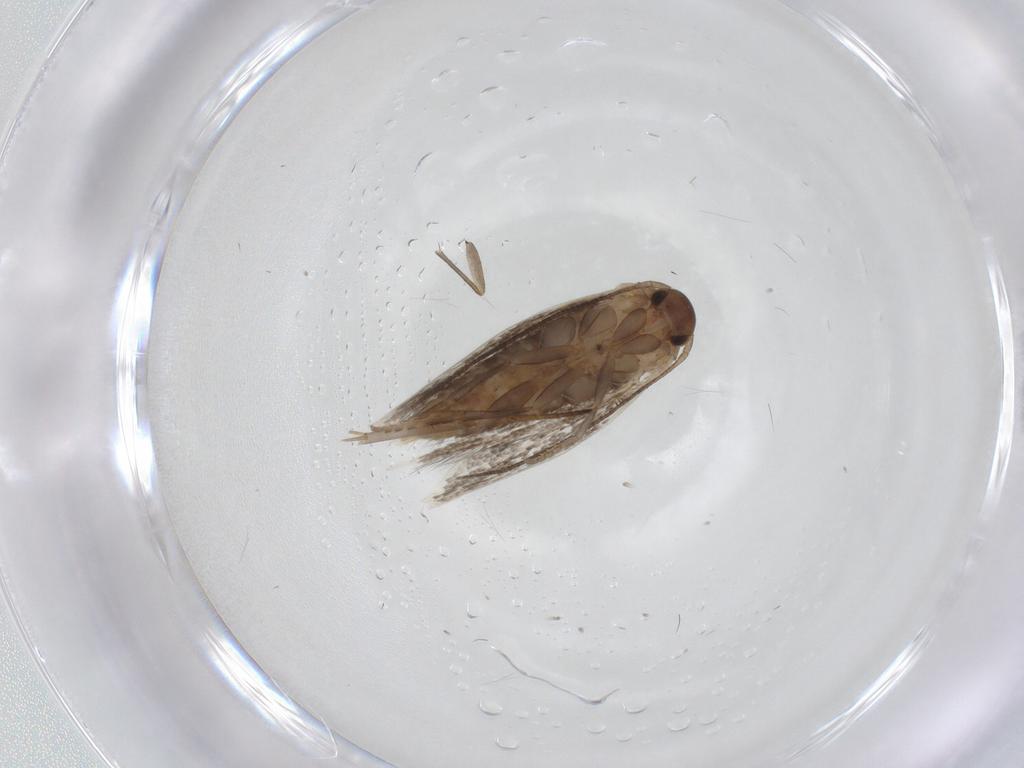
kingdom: Animalia
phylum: Arthropoda
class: Insecta
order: Lepidoptera
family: Elachistidae
